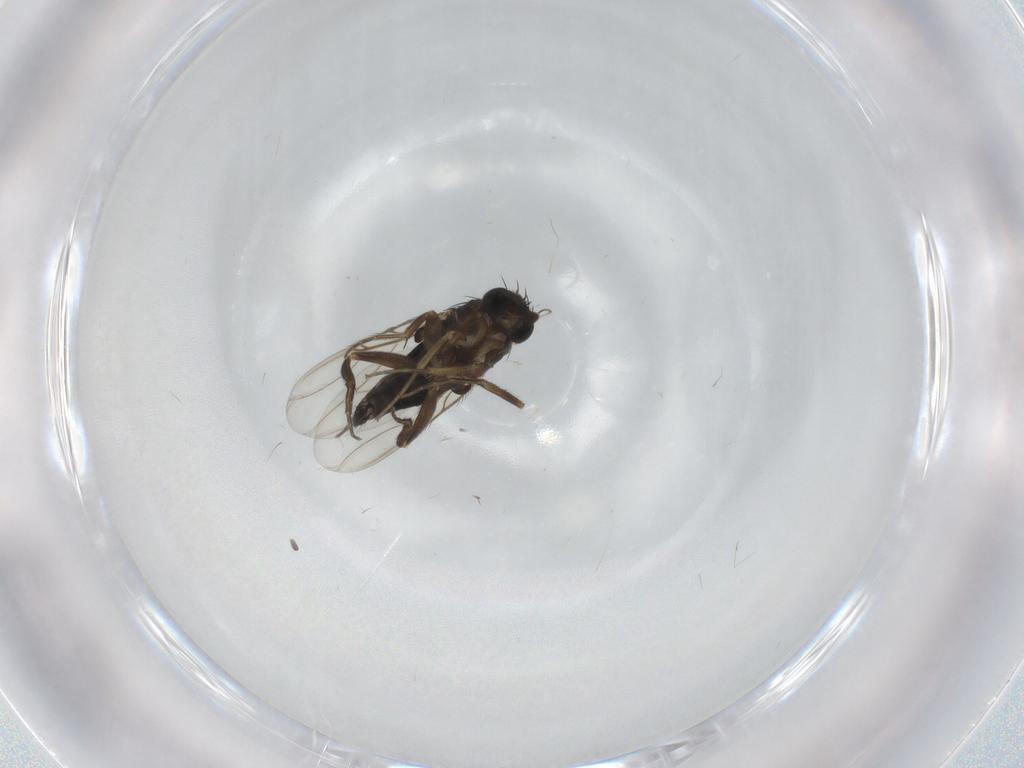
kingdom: Animalia
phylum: Arthropoda
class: Insecta
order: Diptera
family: Phoridae
